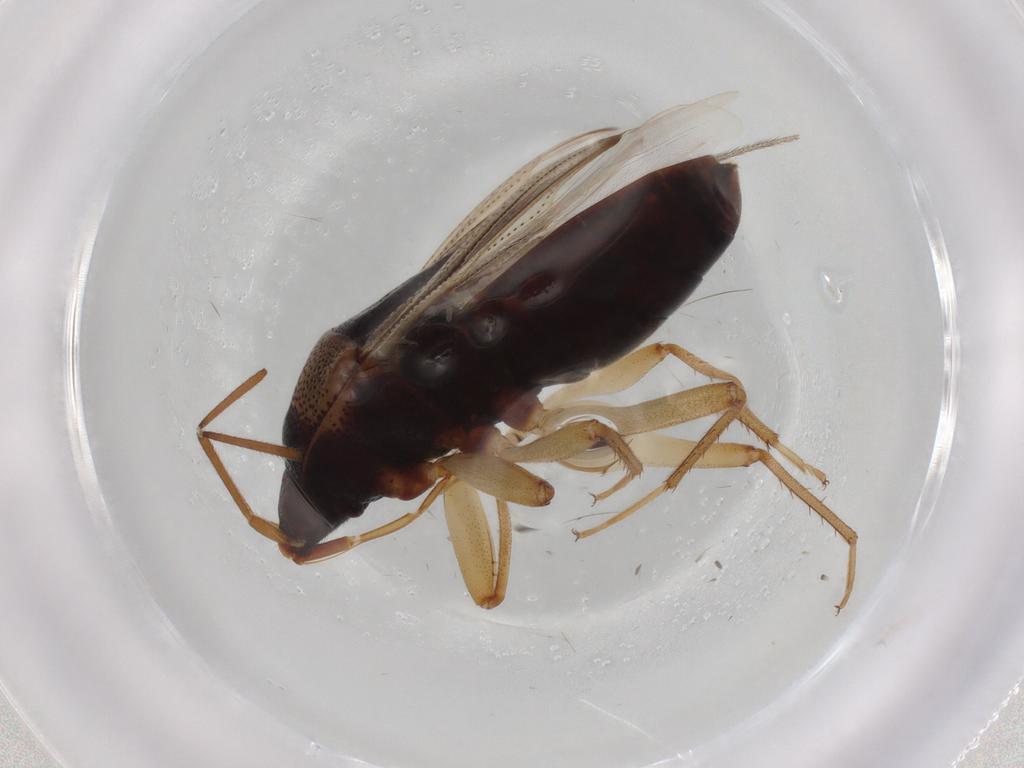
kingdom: Animalia
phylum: Arthropoda
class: Insecta
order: Hemiptera
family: Rhyparochromidae
